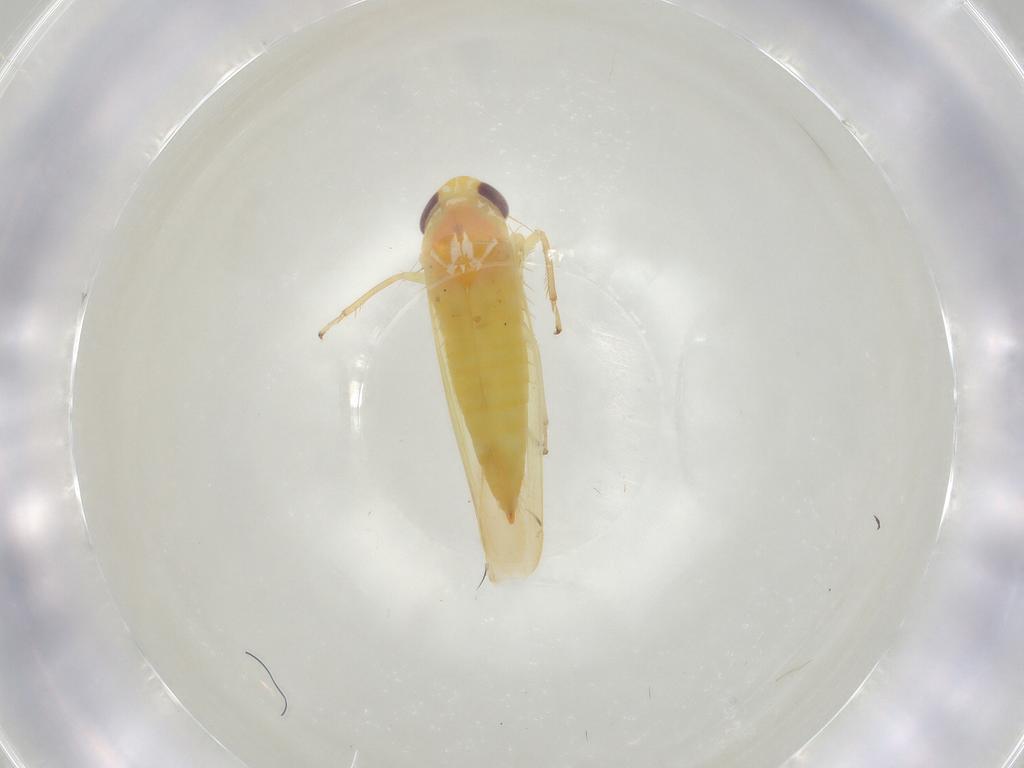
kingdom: Animalia
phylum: Arthropoda
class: Insecta
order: Hemiptera
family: Cicadellidae
